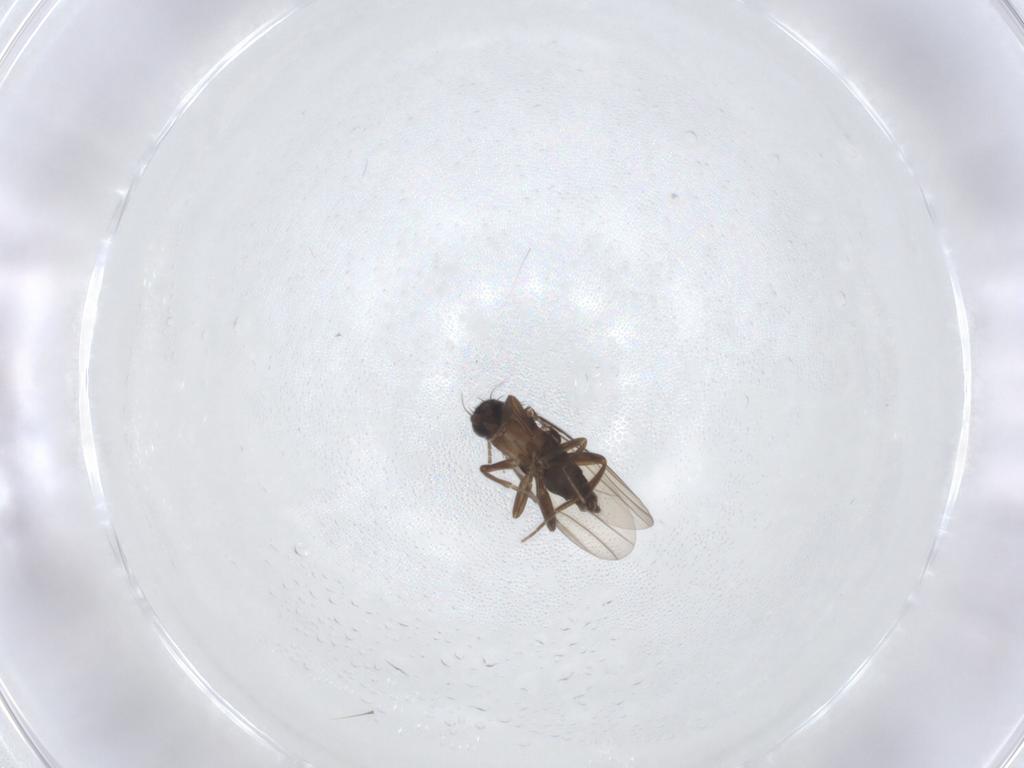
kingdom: Animalia
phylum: Arthropoda
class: Insecta
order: Diptera
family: Phoridae
